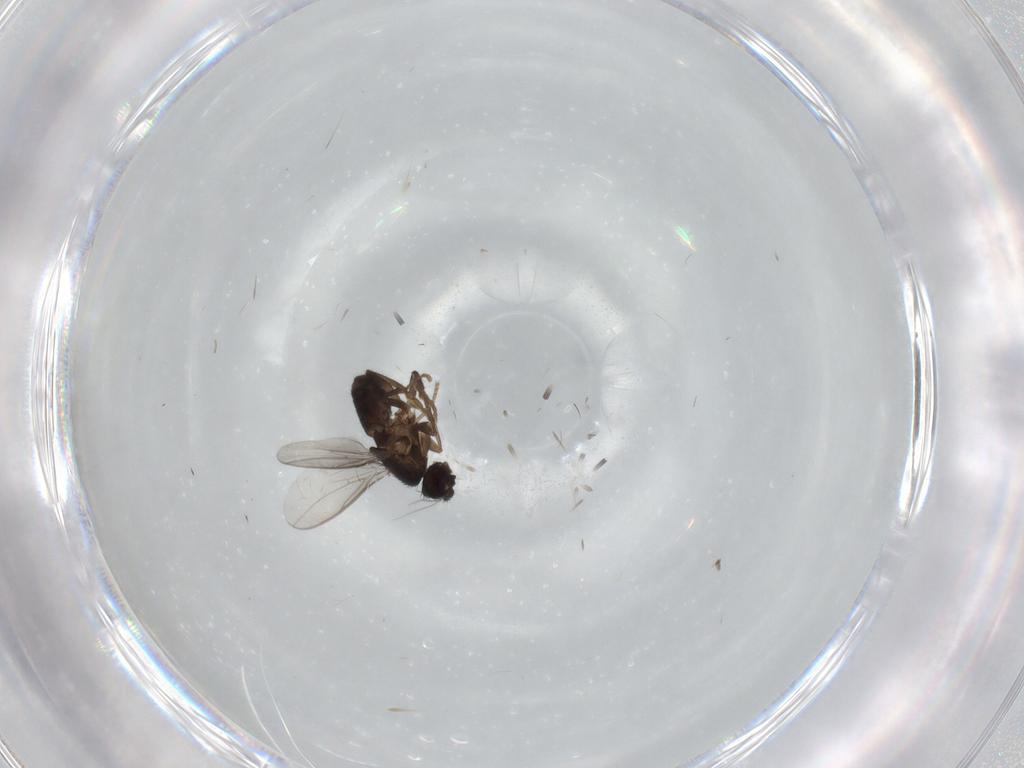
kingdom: Animalia
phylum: Arthropoda
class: Insecta
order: Diptera
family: Sphaeroceridae
